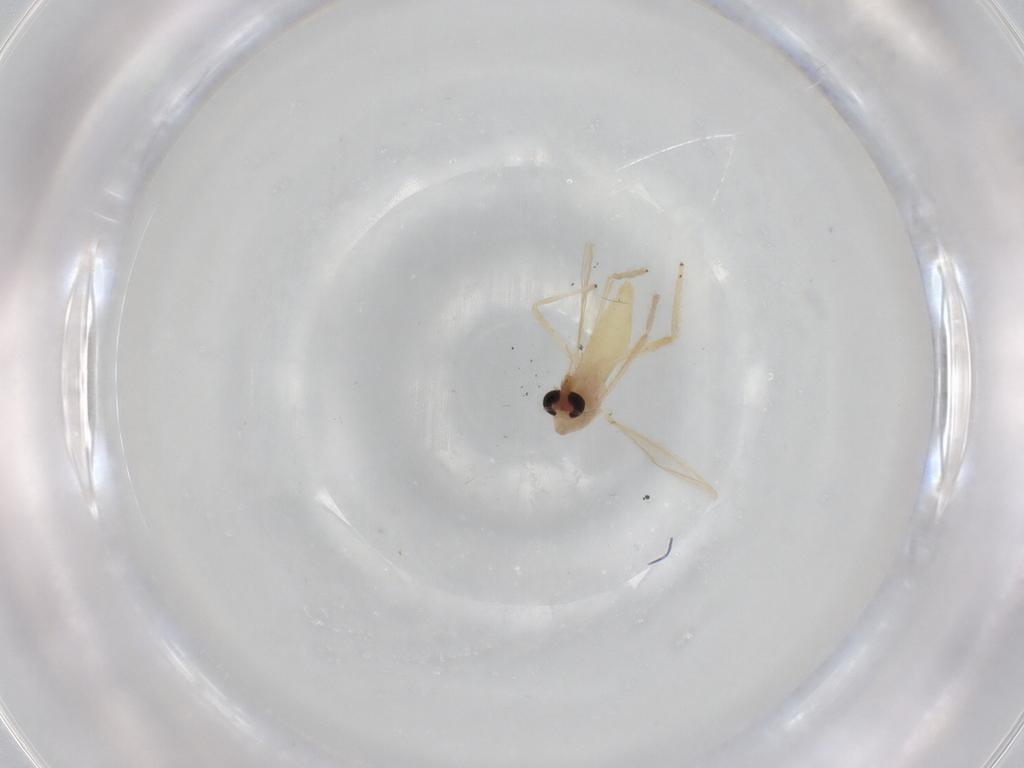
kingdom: Animalia
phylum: Arthropoda
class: Insecta
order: Diptera
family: Chironomidae
